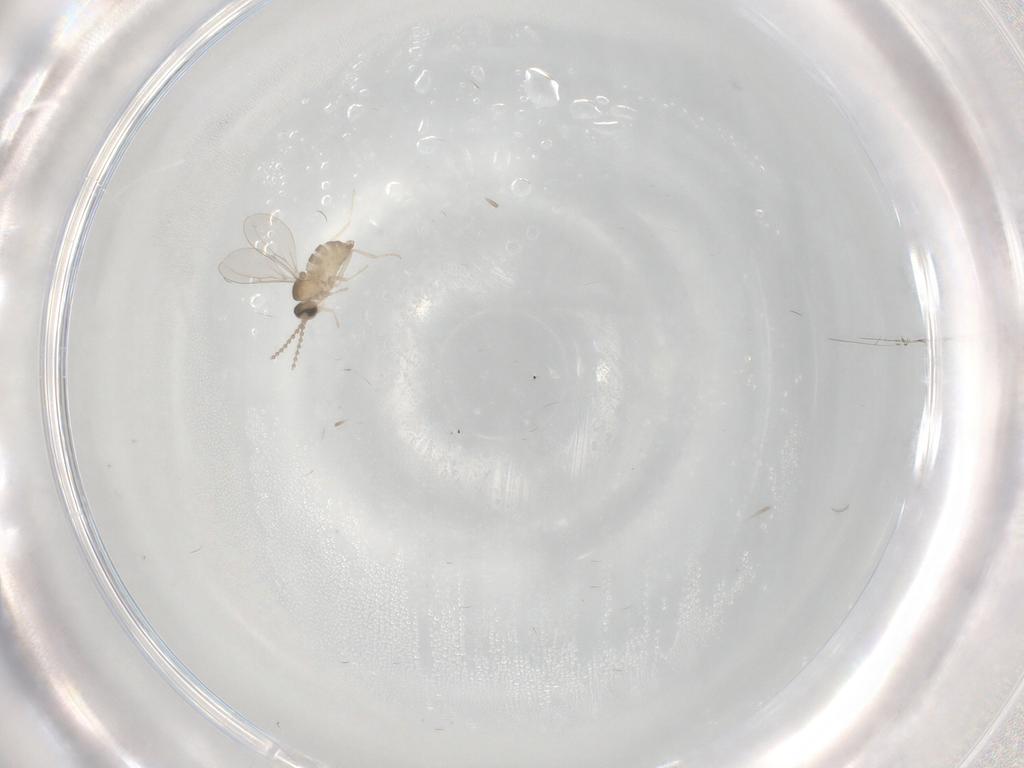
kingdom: Animalia
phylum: Arthropoda
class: Insecta
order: Diptera
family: Cecidomyiidae
